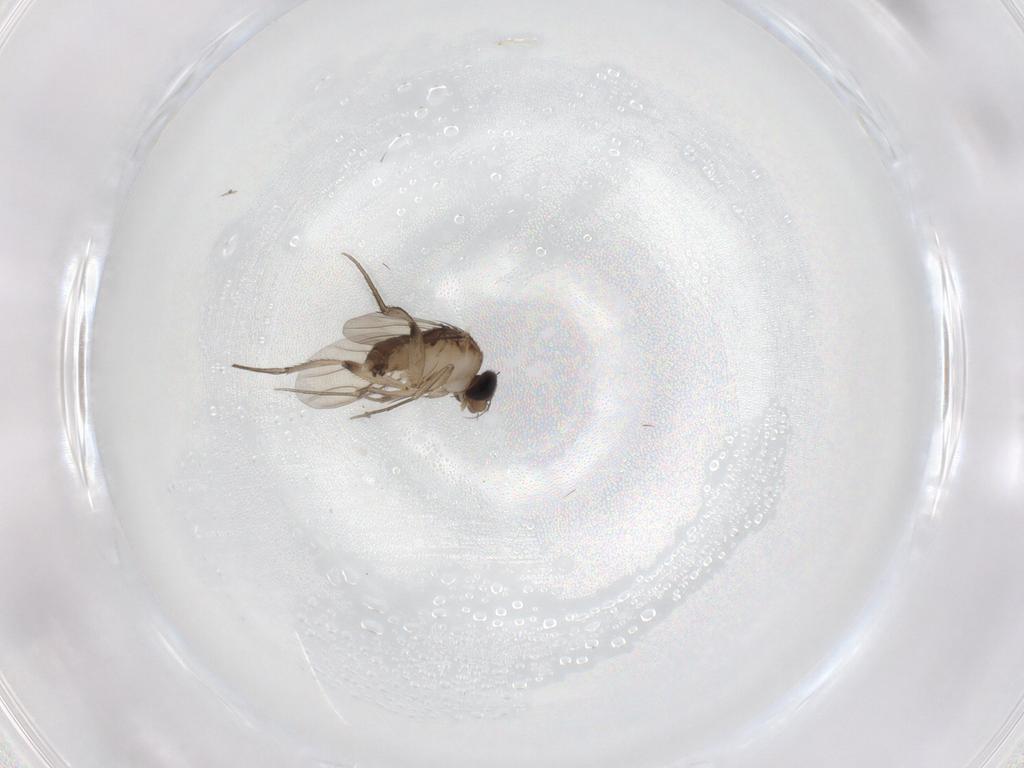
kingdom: Animalia
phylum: Arthropoda
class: Insecta
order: Diptera
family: Phoridae
